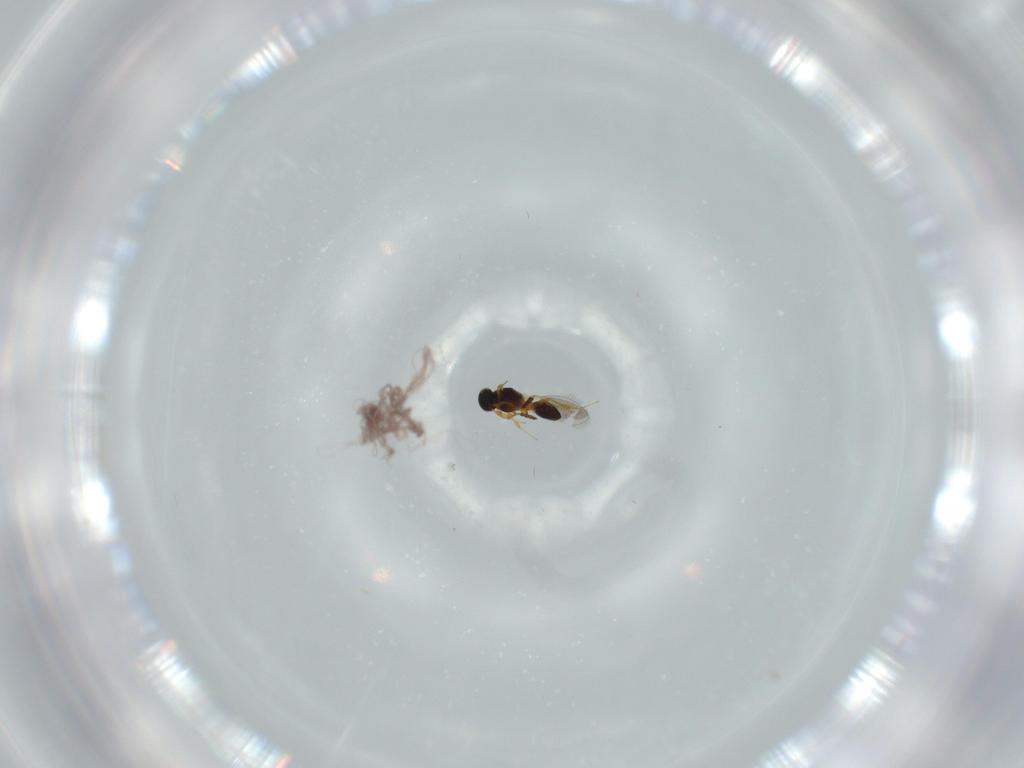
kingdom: Animalia
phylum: Arthropoda
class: Insecta
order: Hymenoptera
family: Platygastridae
